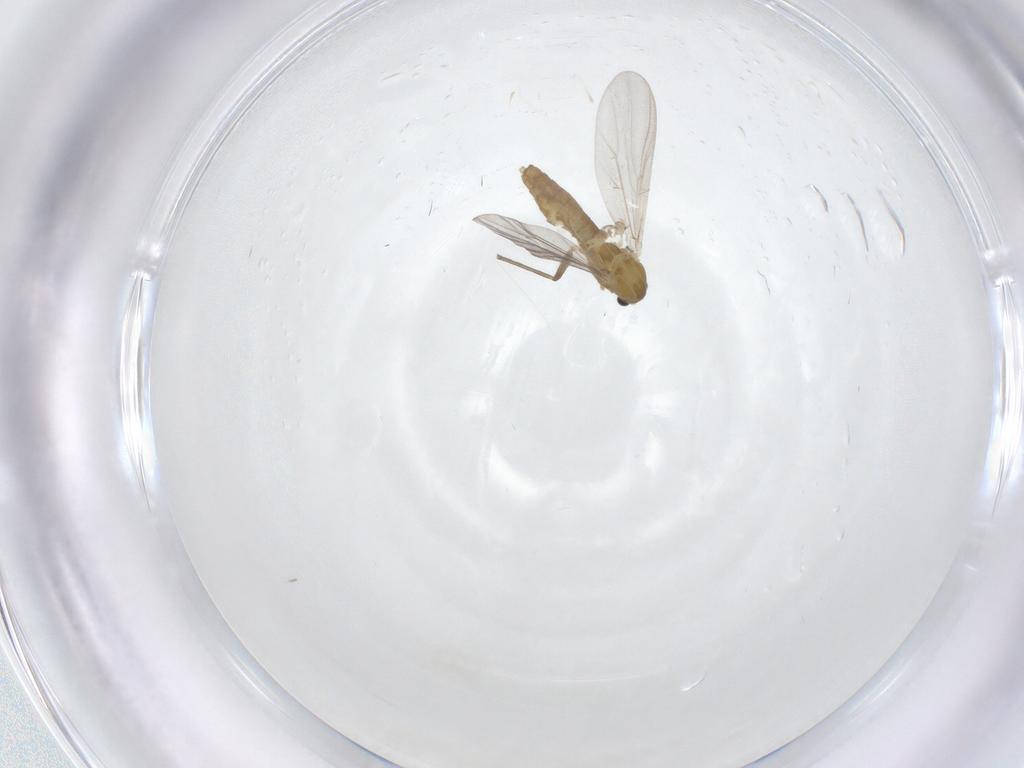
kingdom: Animalia
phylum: Arthropoda
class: Insecta
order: Diptera
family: Chironomidae
